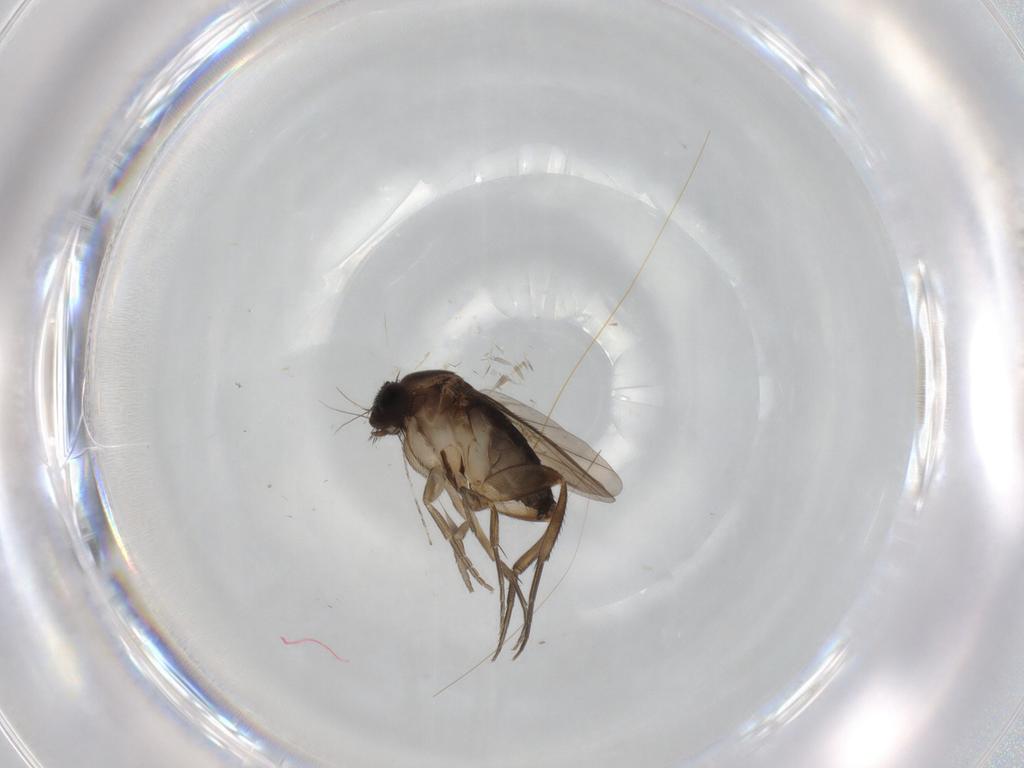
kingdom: Animalia
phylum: Arthropoda
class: Insecta
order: Diptera
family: Phoridae
